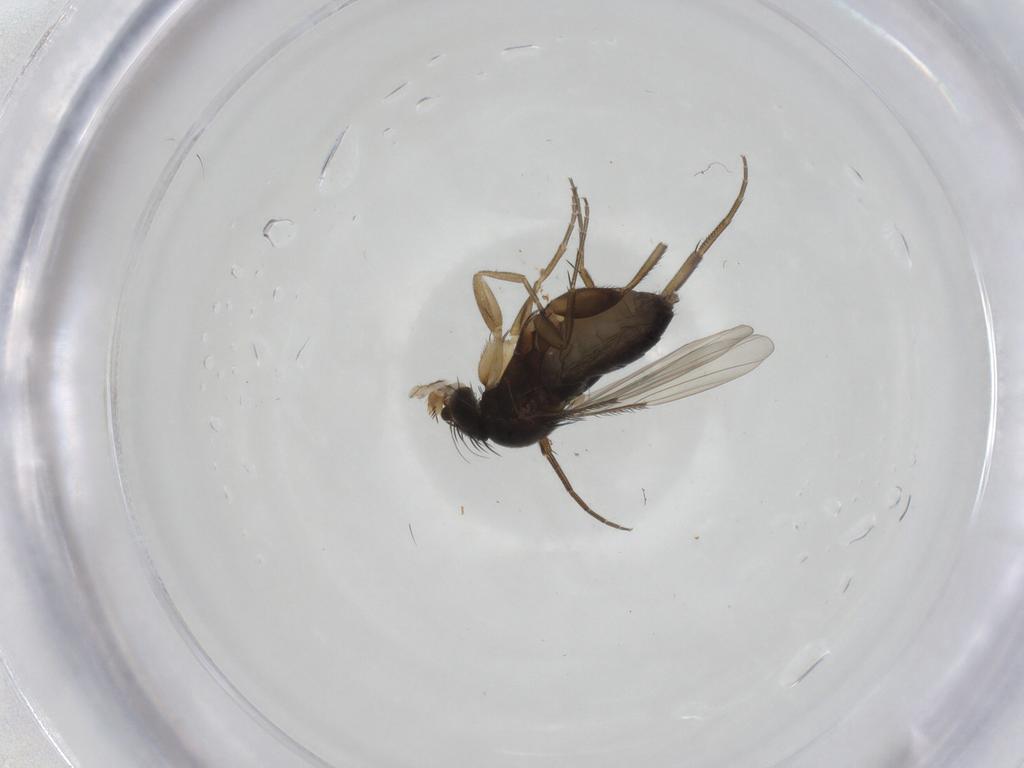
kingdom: Animalia
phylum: Arthropoda
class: Insecta
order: Diptera
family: Phoridae
